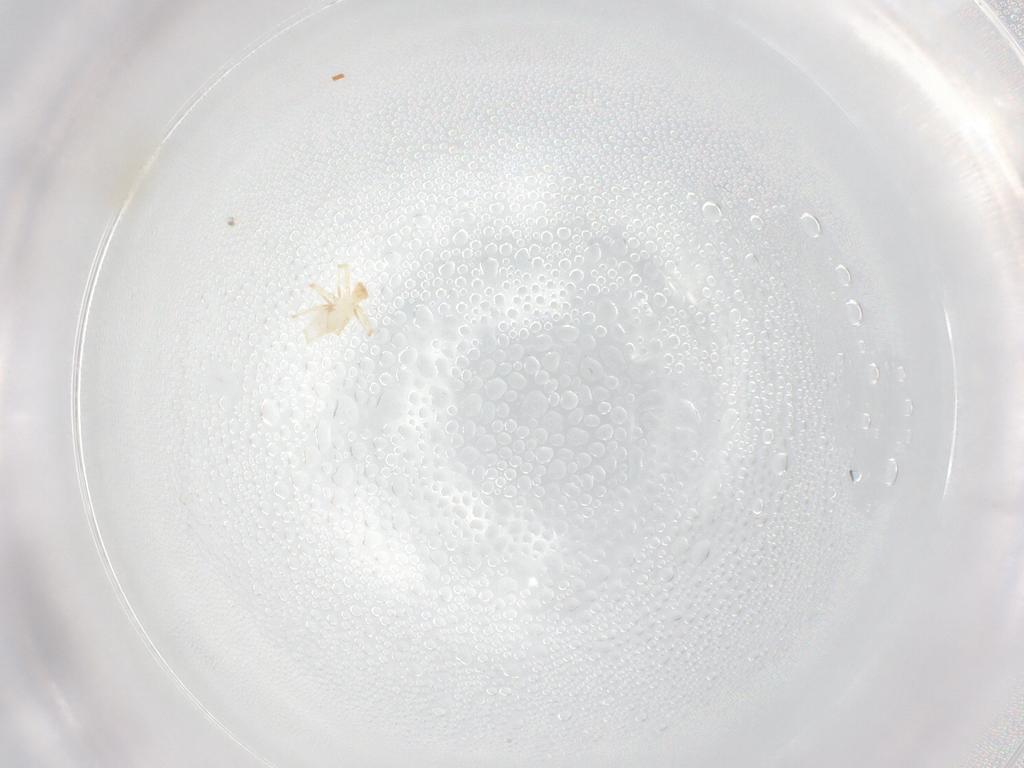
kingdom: Animalia
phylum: Arthropoda
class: Arachnida
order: Trombidiformes
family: Erythraeidae
